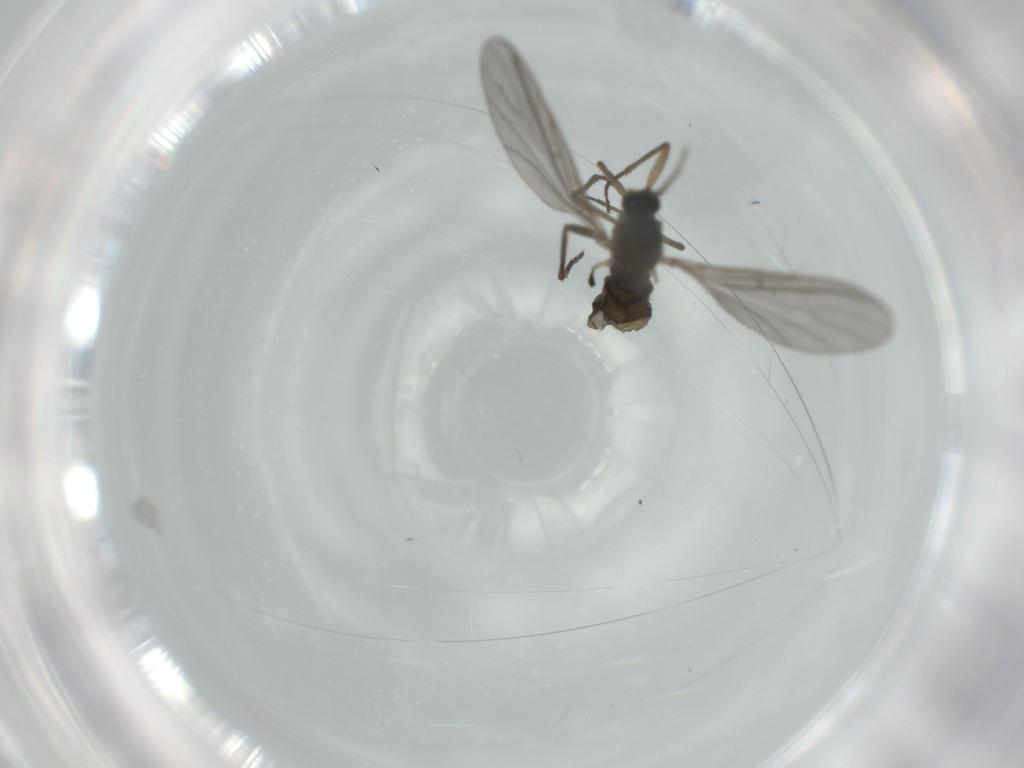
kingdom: Animalia
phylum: Arthropoda
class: Insecta
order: Diptera
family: Sciaridae
